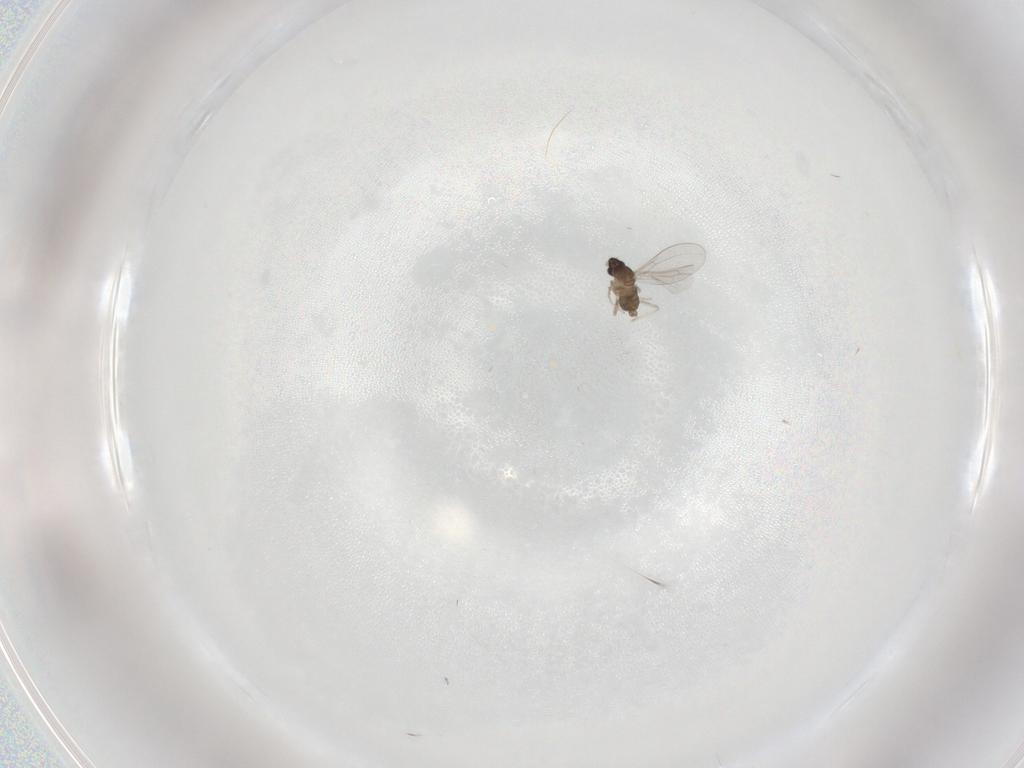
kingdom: Animalia
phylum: Arthropoda
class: Insecta
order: Diptera
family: Cecidomyiidae
